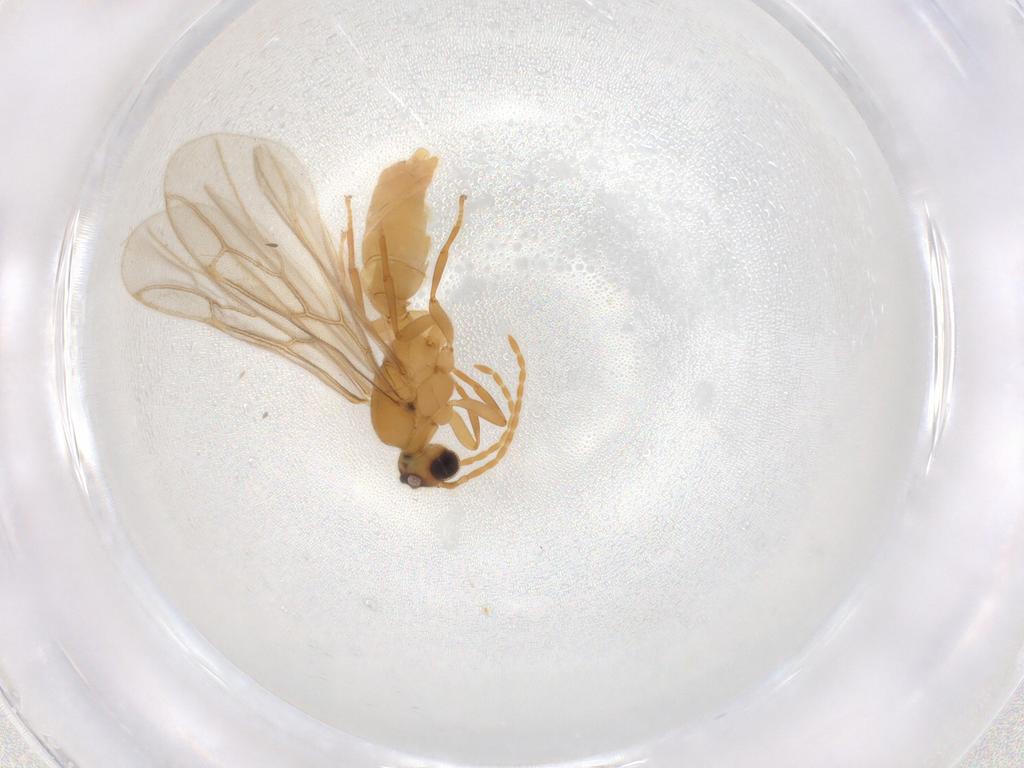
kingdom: Animalia
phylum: Arthropoda
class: Insecta
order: Hymenoptera
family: Formicidae
